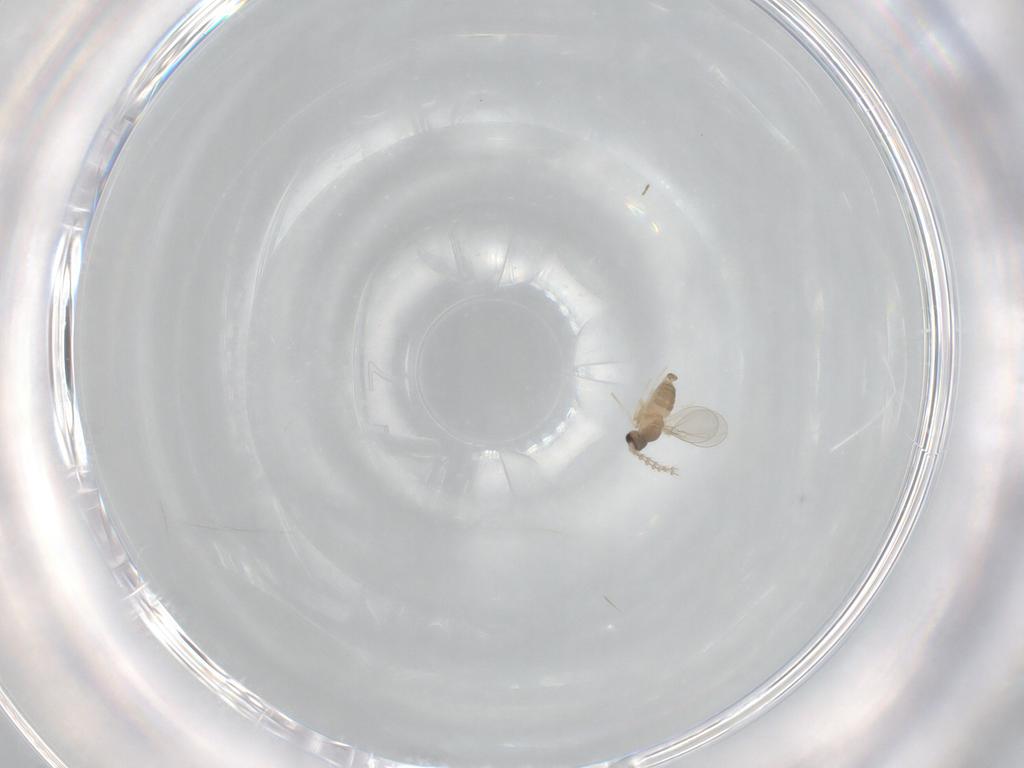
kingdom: Animalia
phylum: Arthropoda
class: Insecta
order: Diptera
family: Cecidomyiidae
